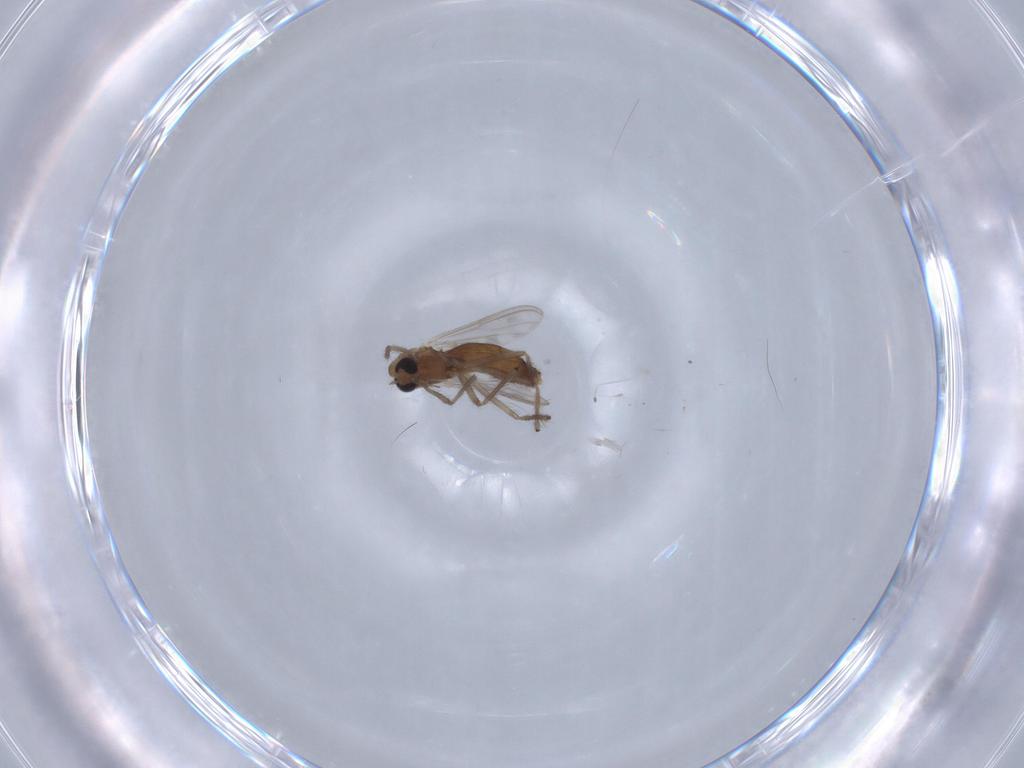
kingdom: Animalia
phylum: Arthropoda
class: Insecta
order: Diptera
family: Chironomidae
